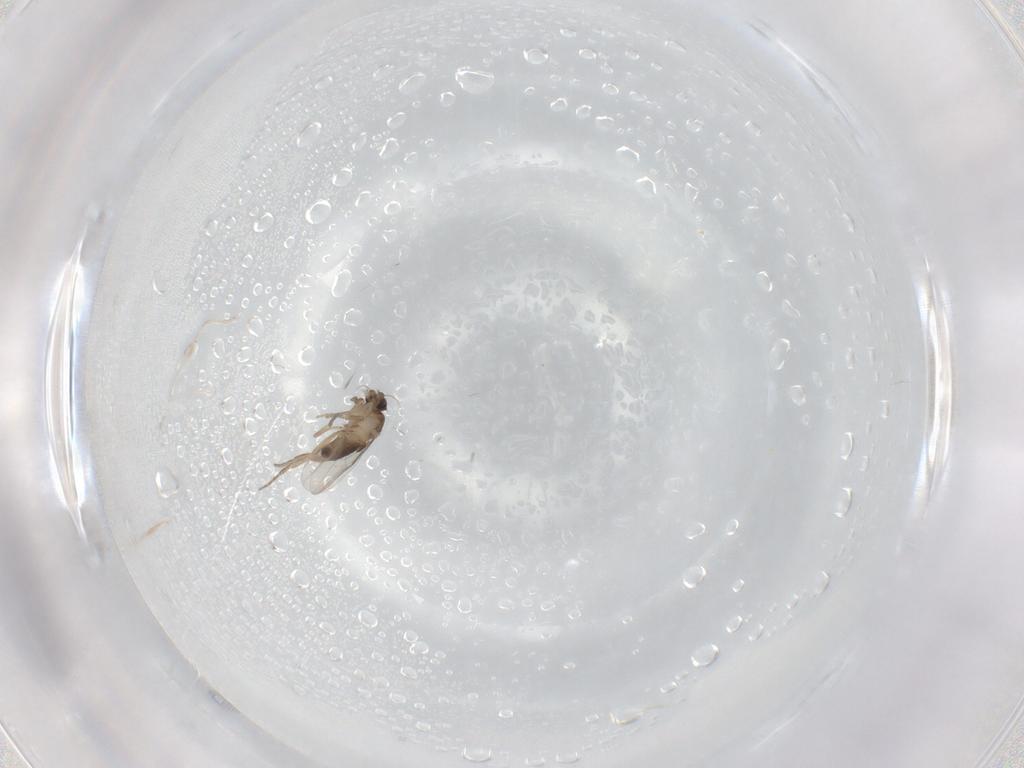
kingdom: Animalia
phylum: Arthropoda
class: Insecta
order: Diptera
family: Phoridae
